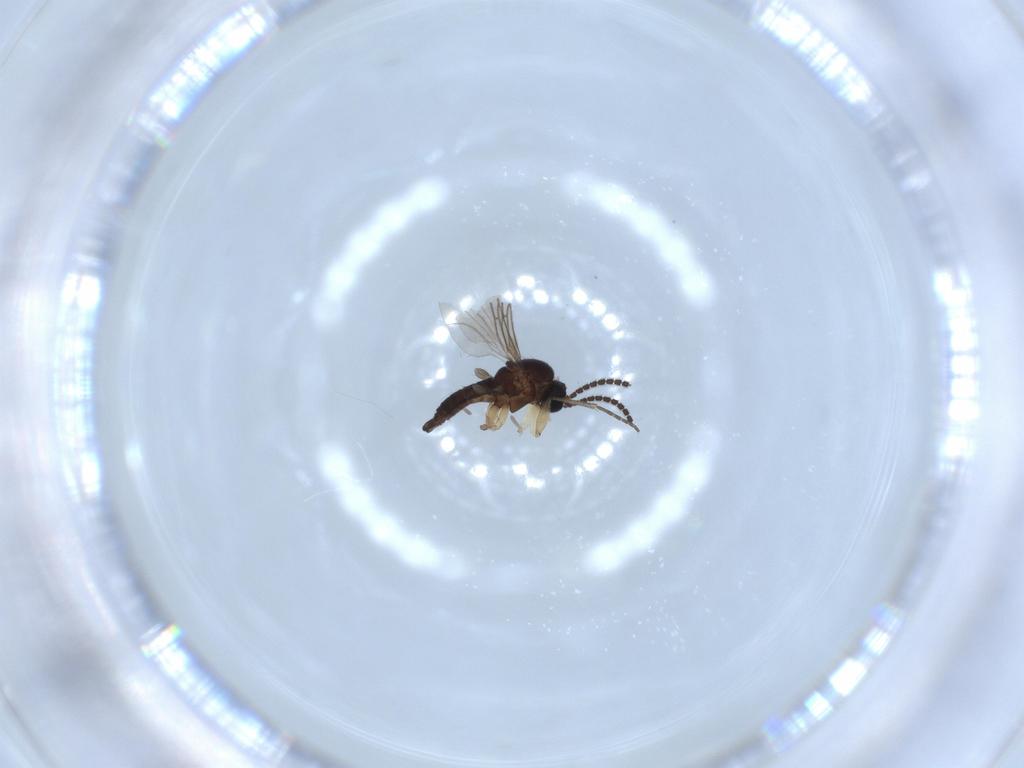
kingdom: Animalia
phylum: Arthropoda
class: Insecta
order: Diptera
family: Sciaridae
